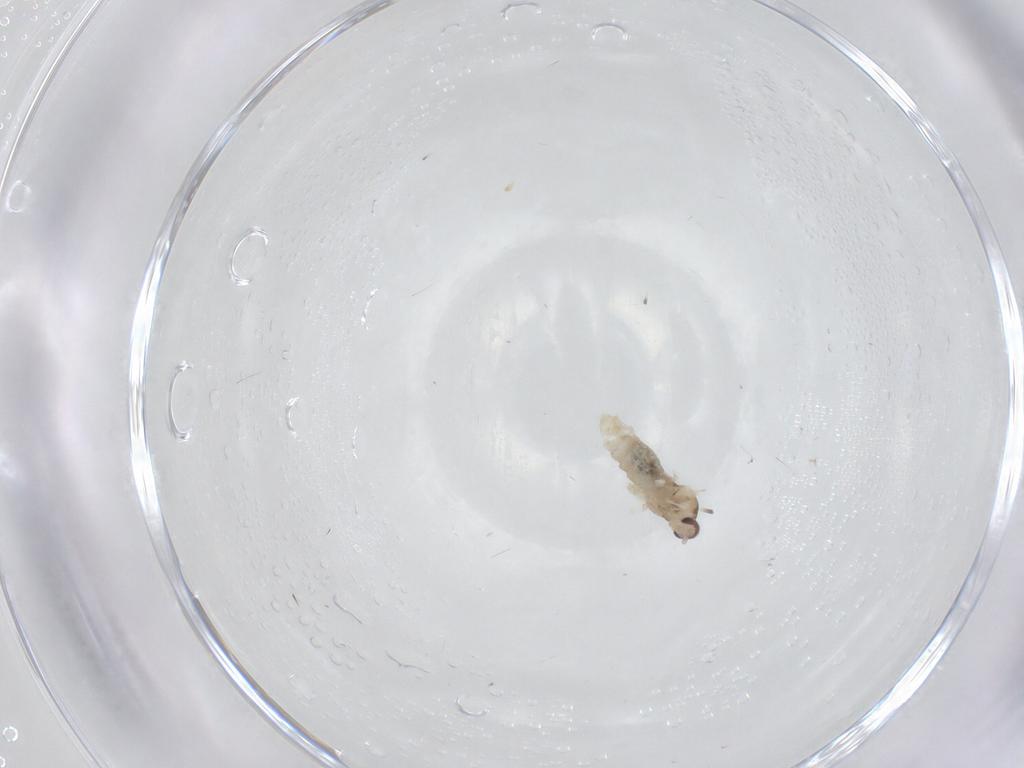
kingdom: Animalia
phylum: Arthropoda
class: Insecta
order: Diptera
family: Cecidomyiidae
